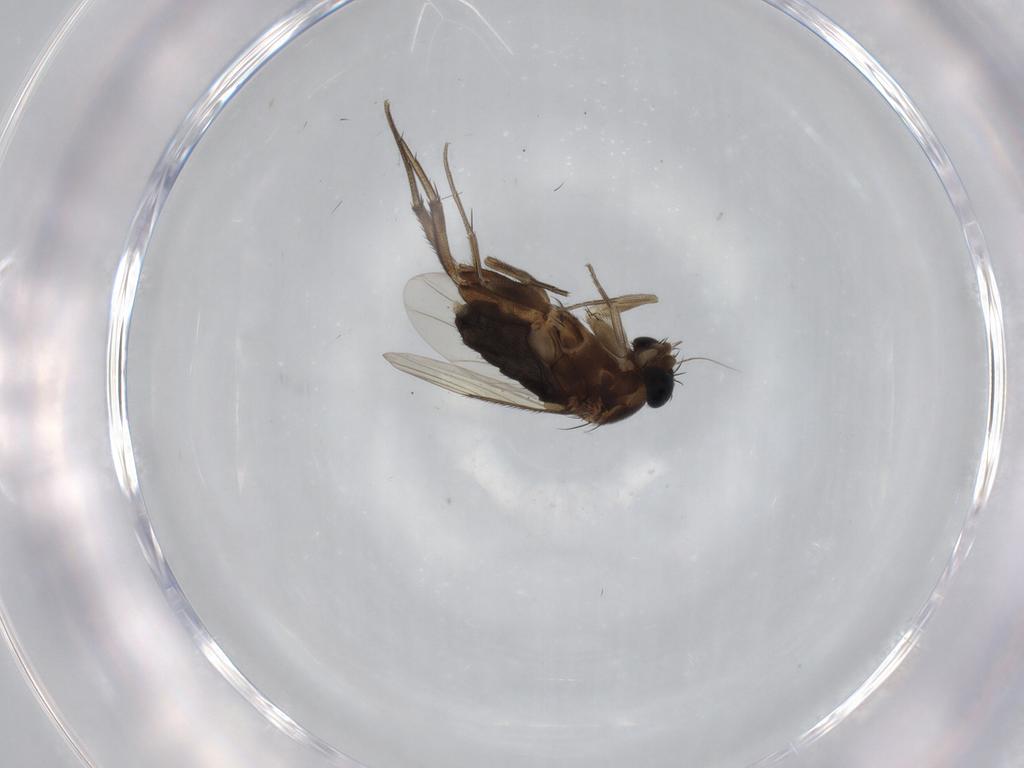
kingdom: Animalia
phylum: Arthropoda
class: Insecta
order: Diptera
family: Phoridae
